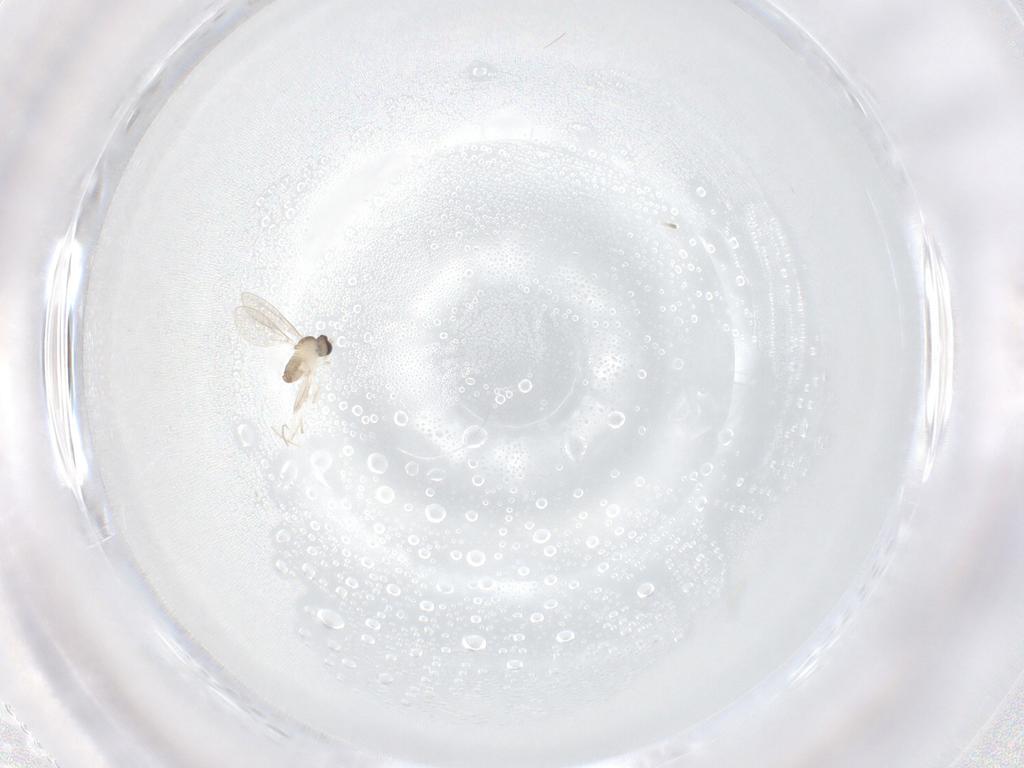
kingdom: Animalia
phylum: Arthropoda
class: Insecta
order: Diptera
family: Cecidomyiidae
